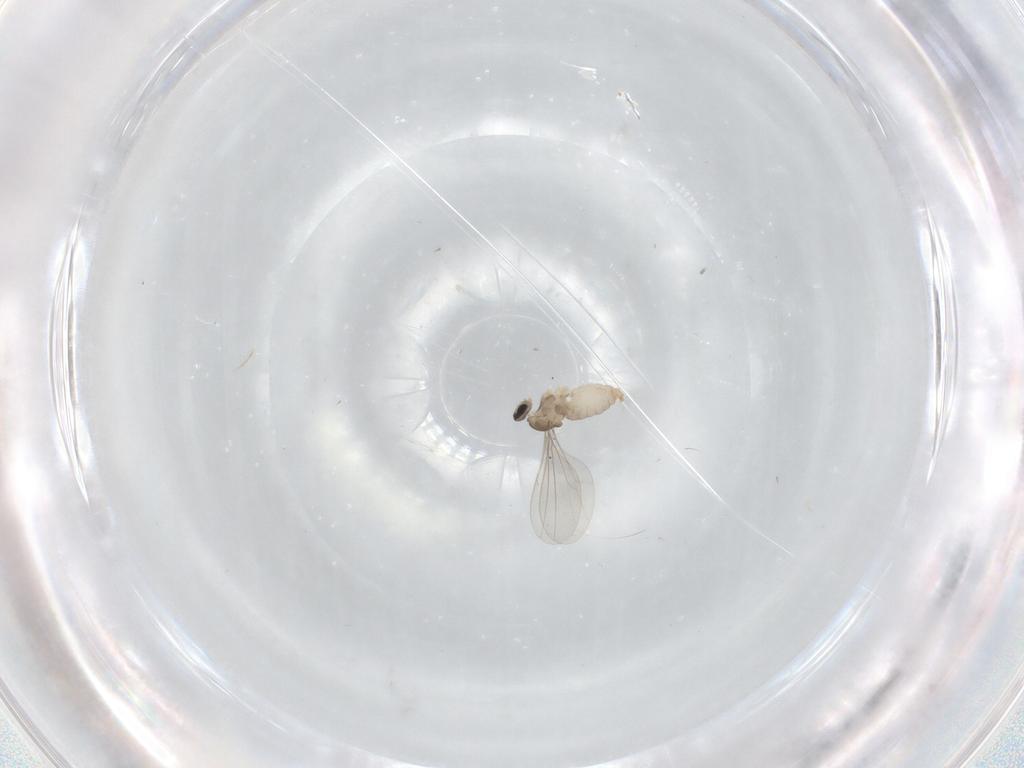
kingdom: Animalia
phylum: Arthropoda
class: Insecta
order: Diptera
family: Cecidomyiidae
